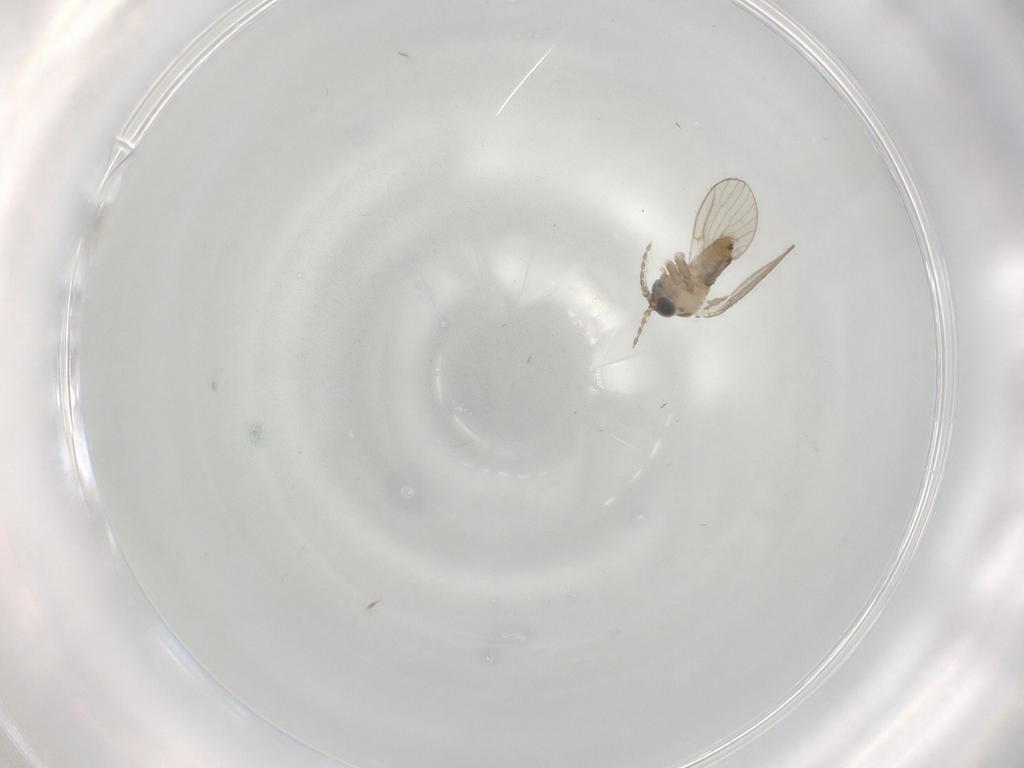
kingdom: Animalia
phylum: Arthropoda
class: Insecta
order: Diptera
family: Psychodidae
